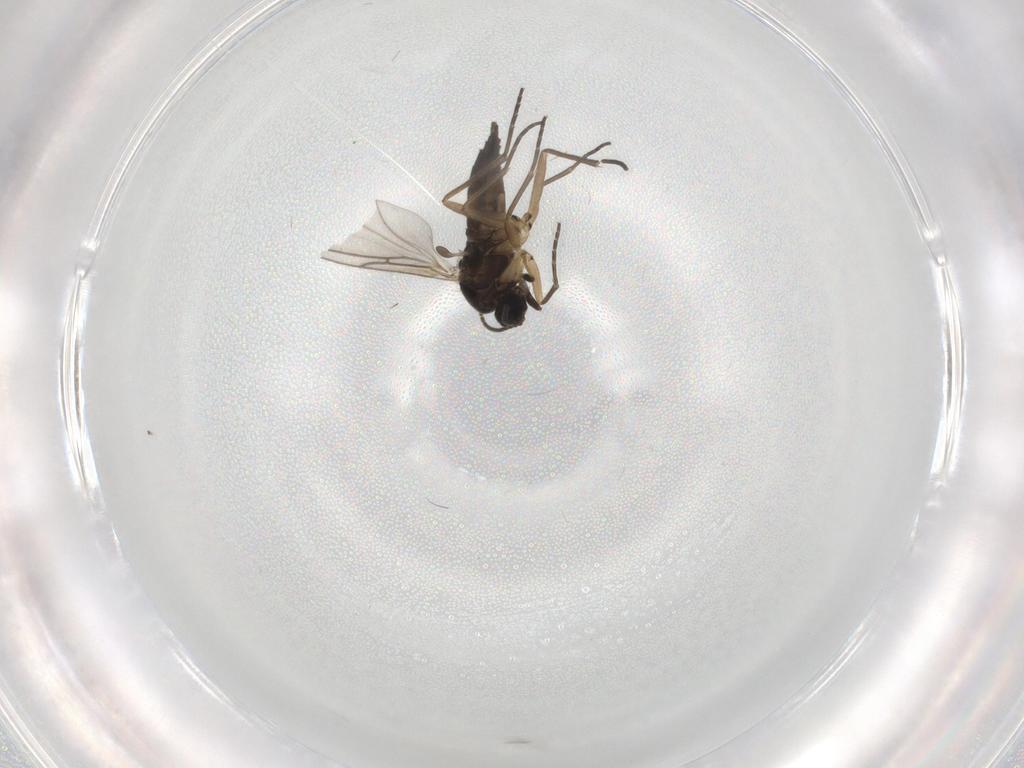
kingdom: Animalia
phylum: Arthropoda
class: Insecta
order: Diptera
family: Sciaridae
